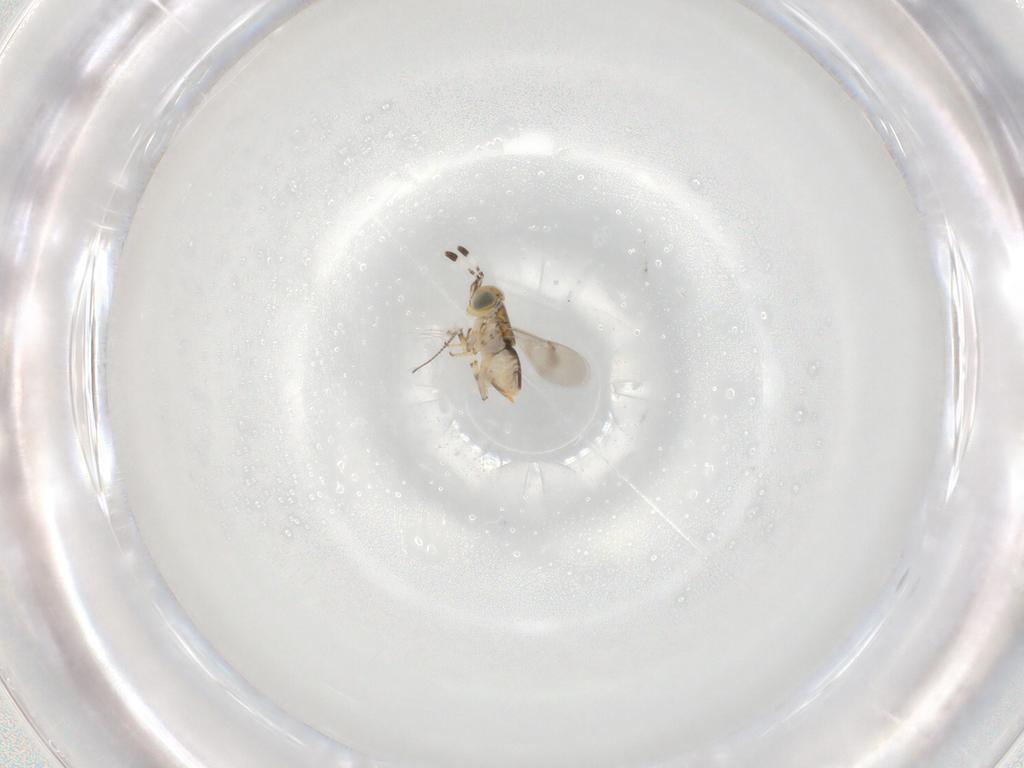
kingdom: Animalia
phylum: Arthropoda
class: Insecta
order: Hymenoptera
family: Encyrtidae
